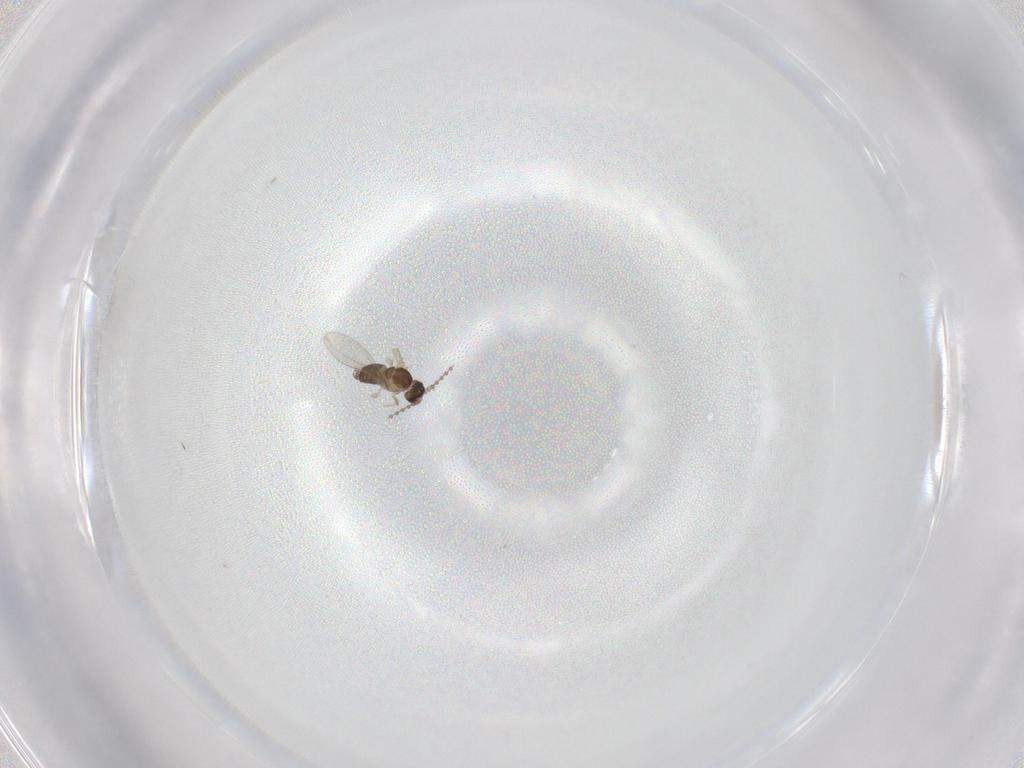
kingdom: Animalia
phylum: Arthropoda
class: Insecta
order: Diptera
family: Cecidomyiidae
